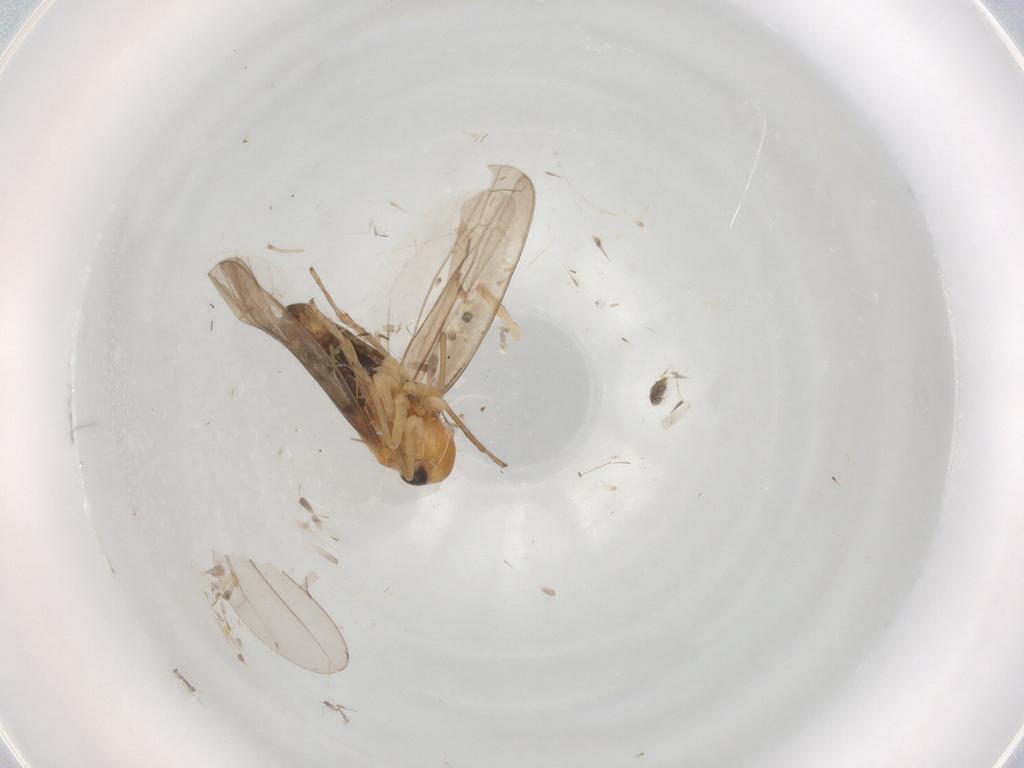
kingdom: Animalia
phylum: Arthropoda
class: Insecta
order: Hemiptera
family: Cicadellidae
